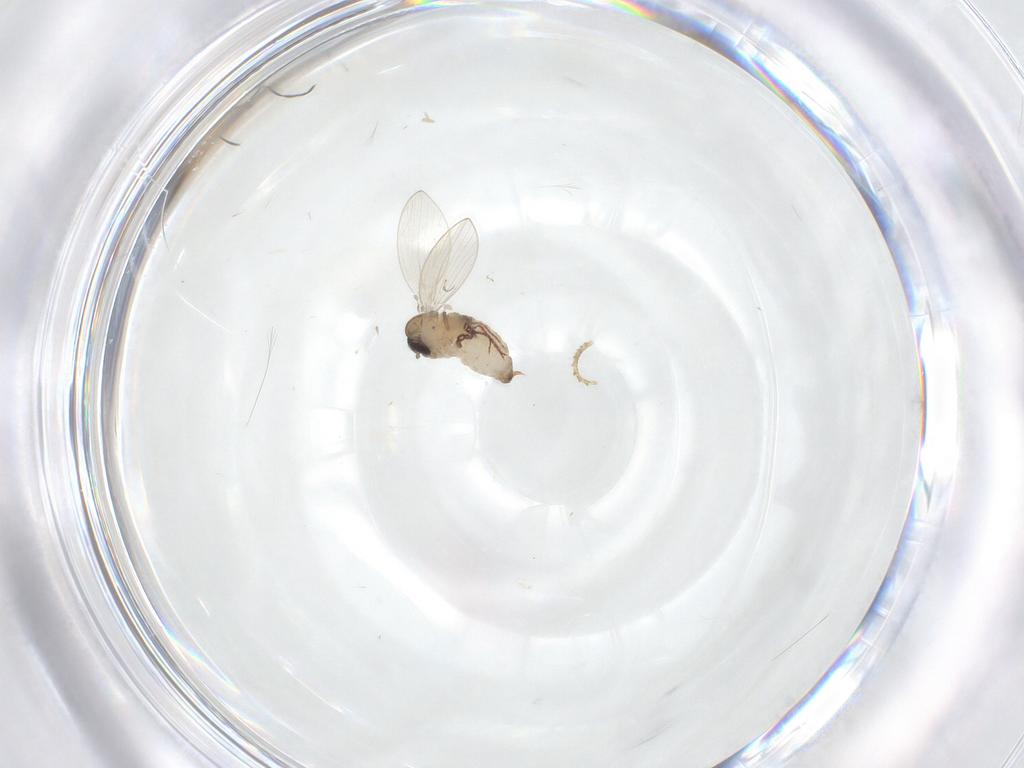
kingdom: Animalia
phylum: Arthropoda
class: Insecta
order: Diptera
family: Psychodidae
